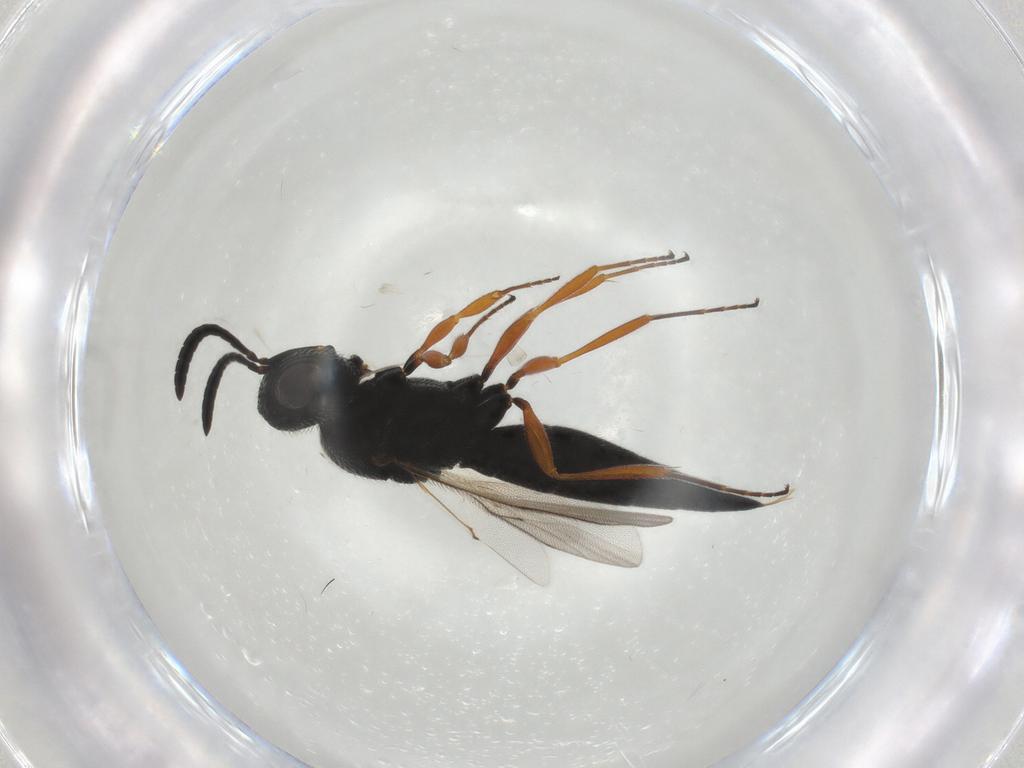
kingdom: Animalia
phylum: Arthropoda
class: Insecta
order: Hymenoptera
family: Scelionidae
